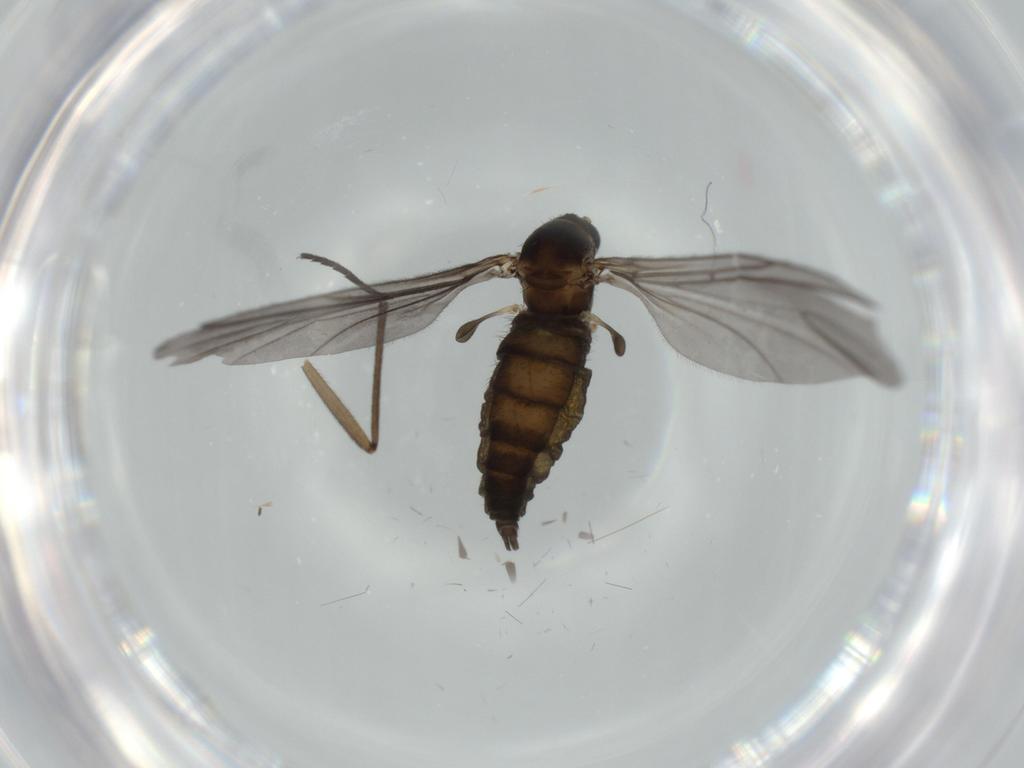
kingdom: Animalia
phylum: Arthropoda
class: Insecta
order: Diptera
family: Sciaridae
